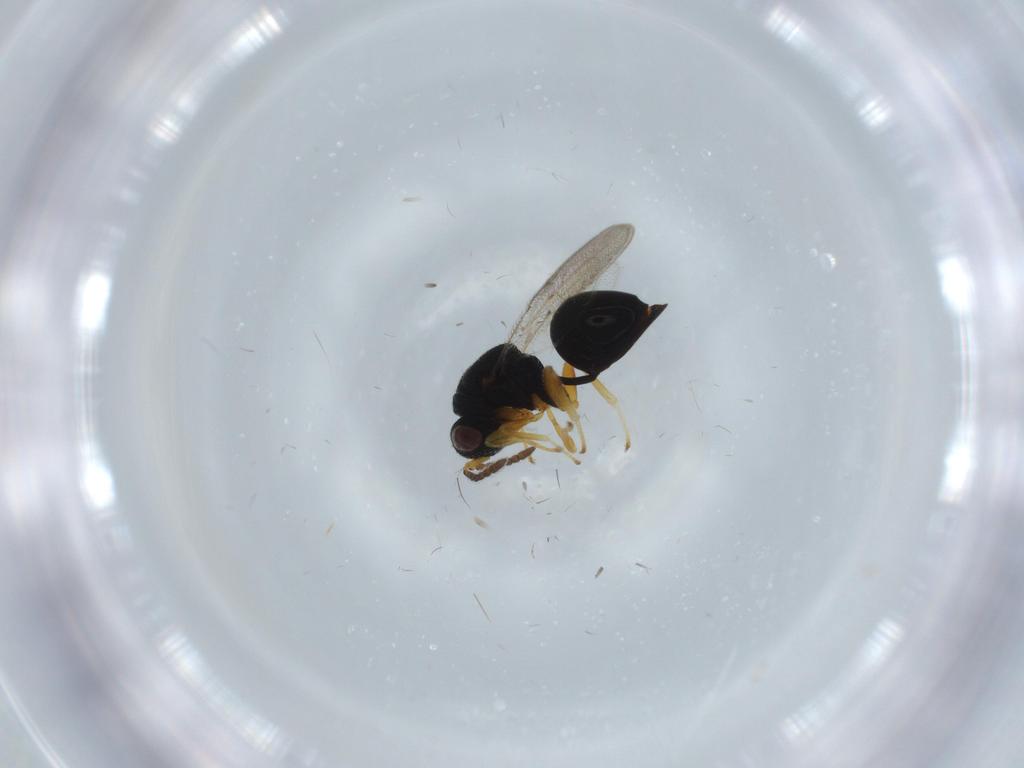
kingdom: Animalia
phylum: Arthropoda
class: Insecta
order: Hymenoptera
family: Eurytomidae
